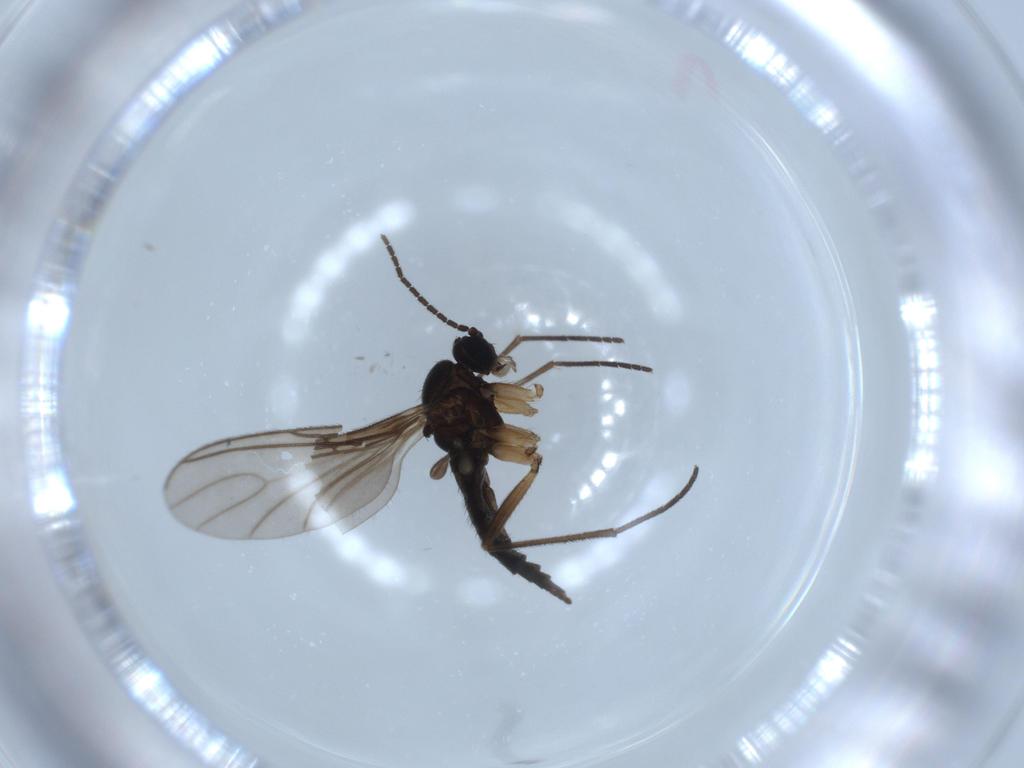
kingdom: Animalia
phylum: Arthropoda
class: Insecta
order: Diptera
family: Sciaridae
